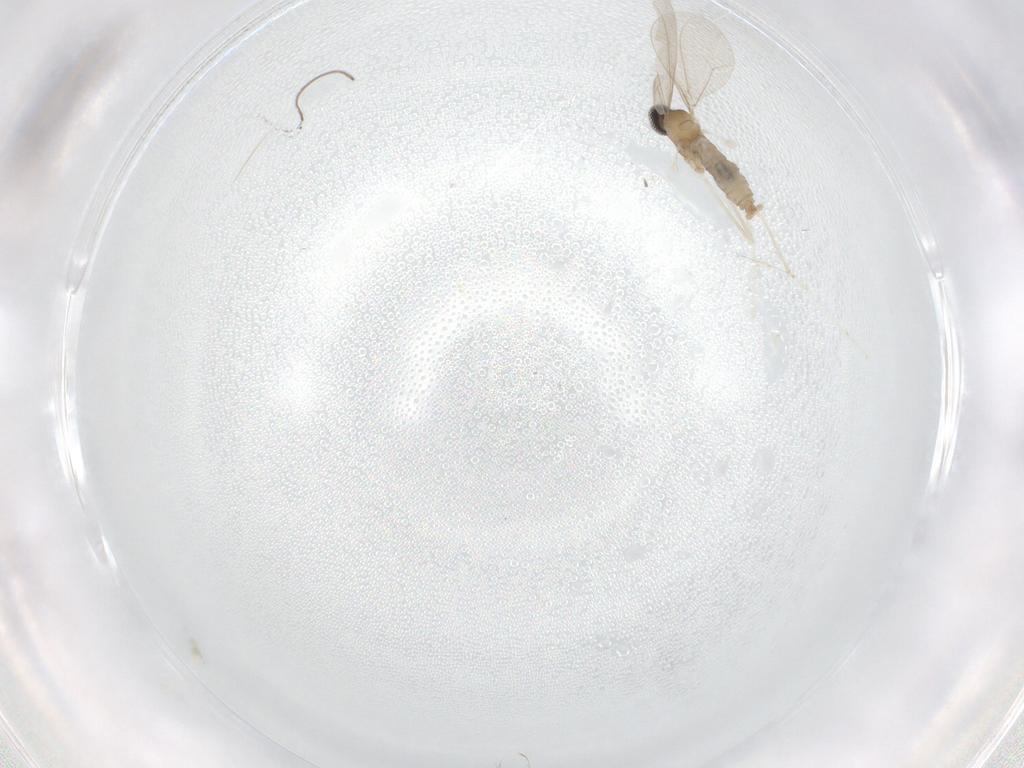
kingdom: Animalia
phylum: Arthropoda
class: Insecta
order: Diptera
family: Cecidomyiidae
